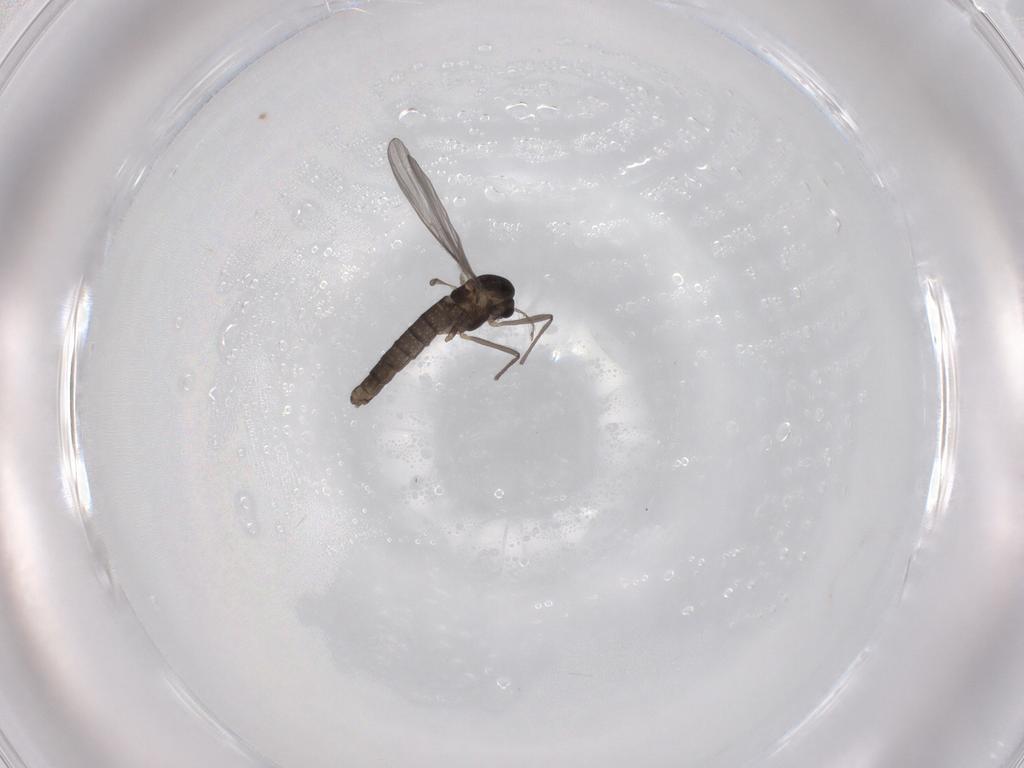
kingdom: Animalia
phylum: Arthropoda
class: Insecta
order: Diptera
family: Chironomidae
